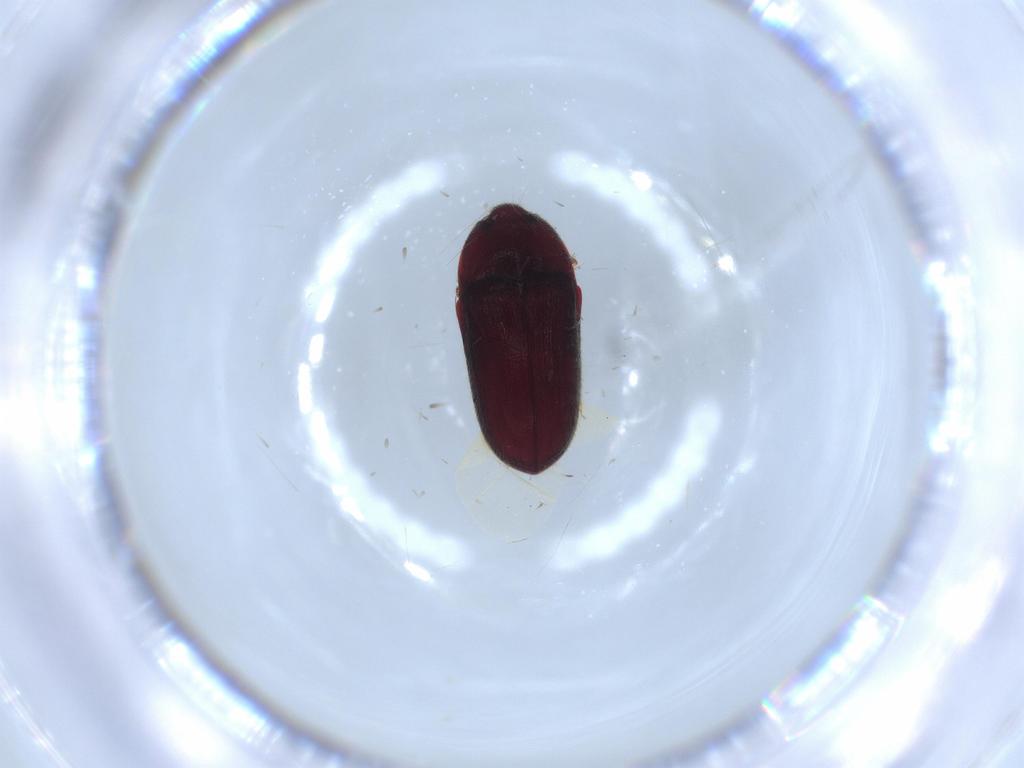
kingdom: Animalia
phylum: Arthropoda
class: Insecta
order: Coleoptera
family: Throscidae
